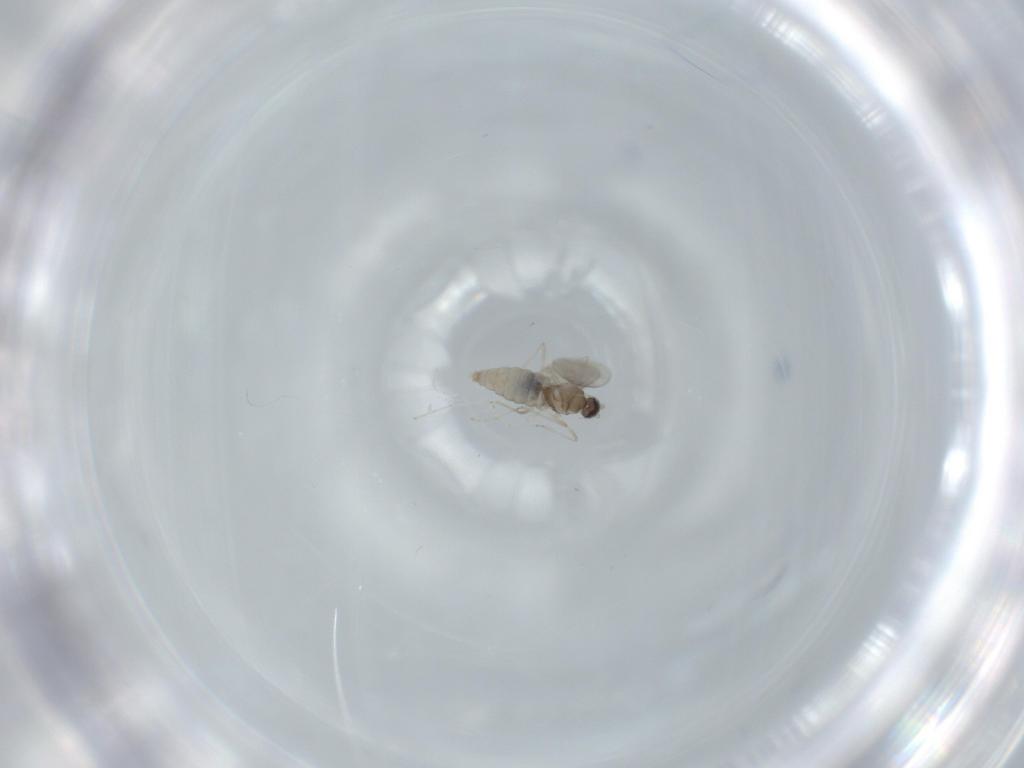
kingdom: Animalia
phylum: Arthropoda
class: Insecta
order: Diptera
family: Cecidomyiidae
